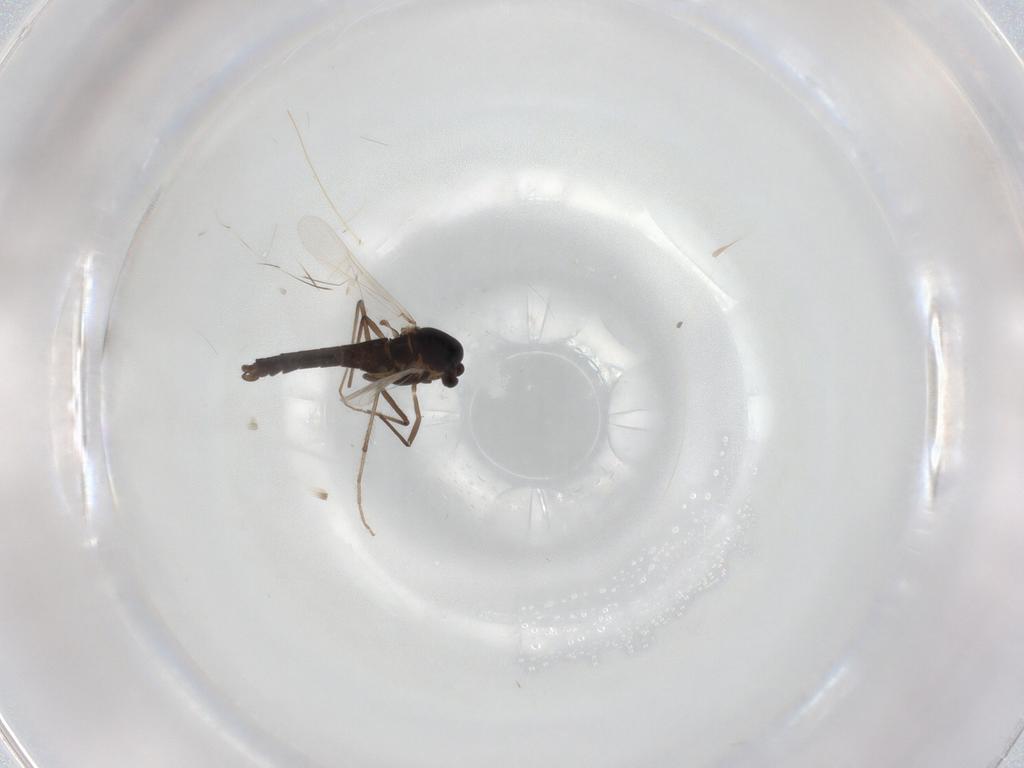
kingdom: Animalia
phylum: Arthropoda
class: Insecta
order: Diptera
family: Chironomidae
